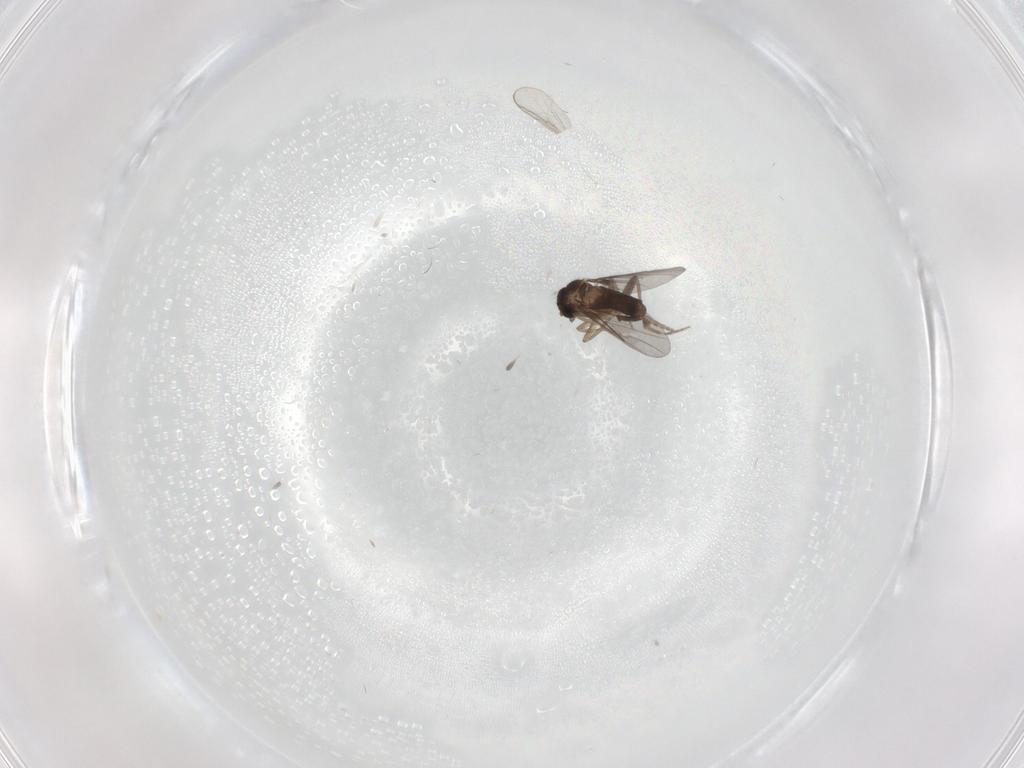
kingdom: Animalia
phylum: Arthropoda
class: Insecta
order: Diptera
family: Chironomidae
